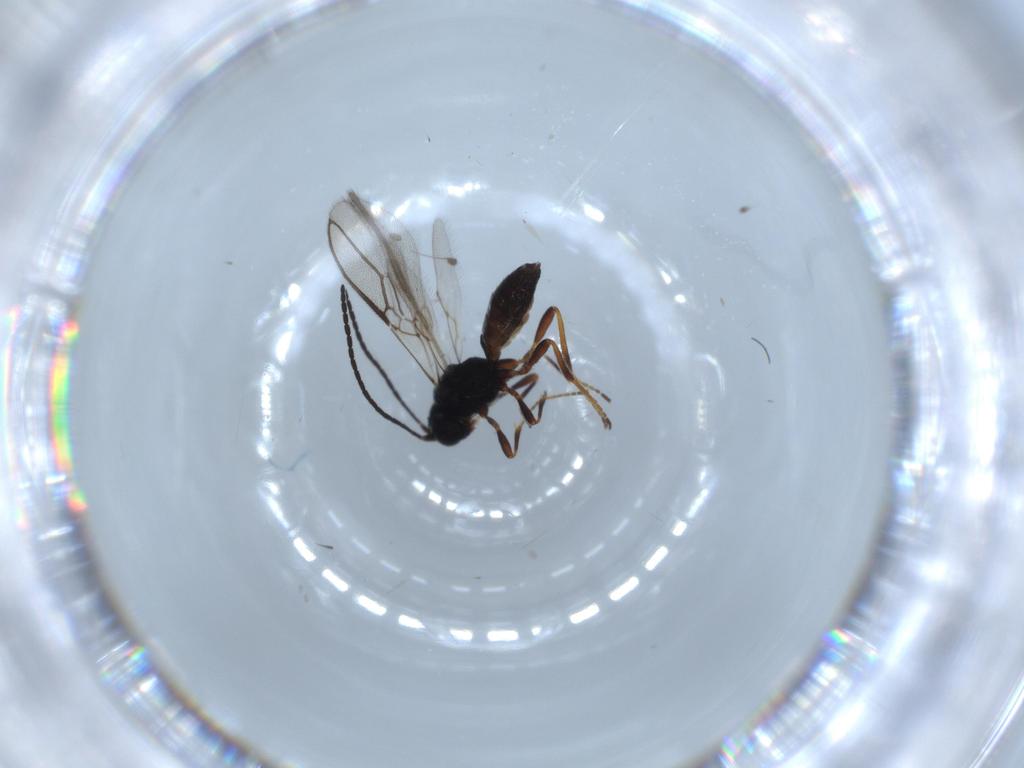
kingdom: Animalia
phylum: Arthropoda
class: Insecta
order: Hymenoptera
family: Braconidae
